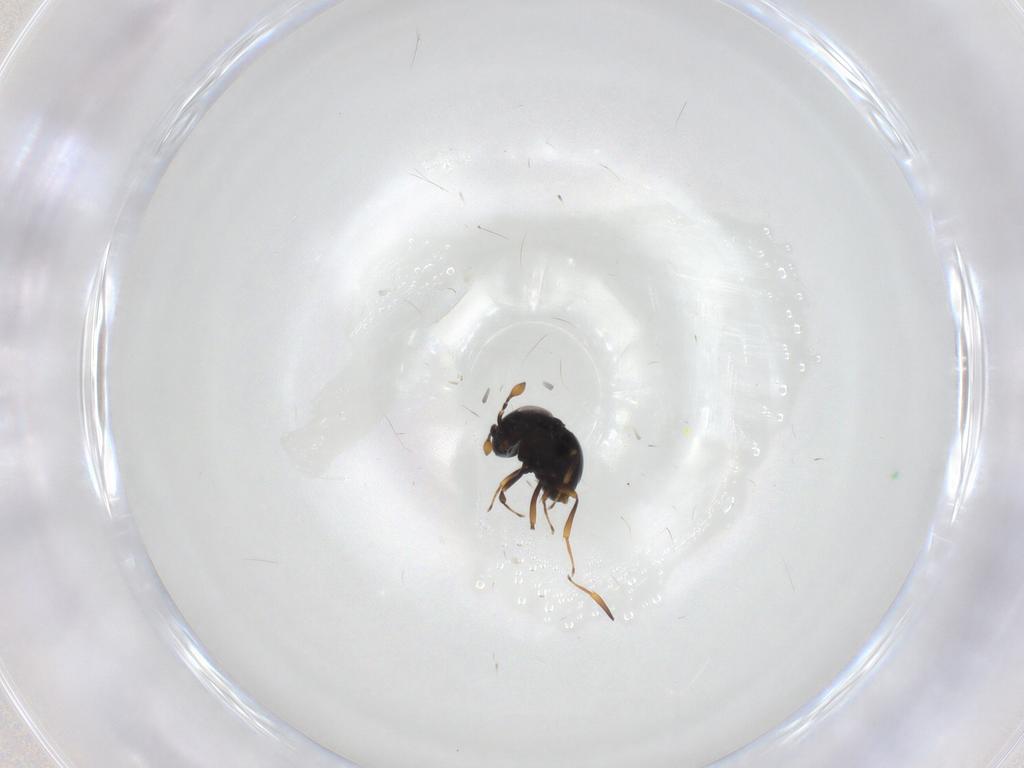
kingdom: Animalia
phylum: Arthropoda
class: Insecta
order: Hymenoptera
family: Scelionidae
